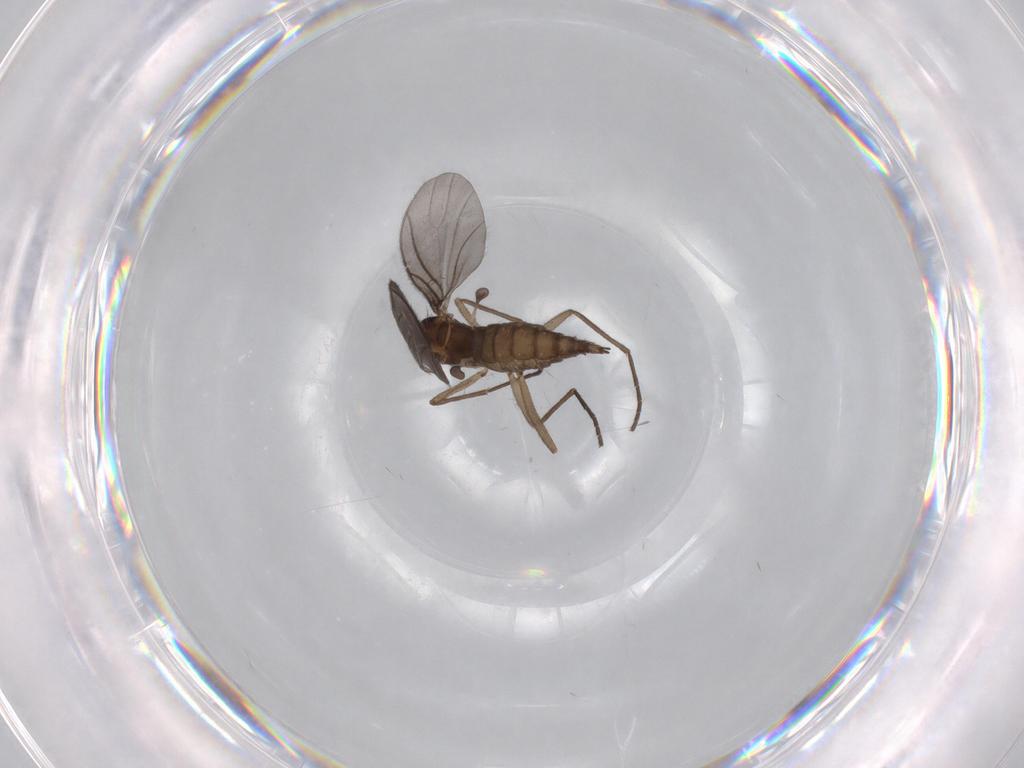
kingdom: Animalia
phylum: Arthropoda
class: Insecta
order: Diptera
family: Sciaridae
